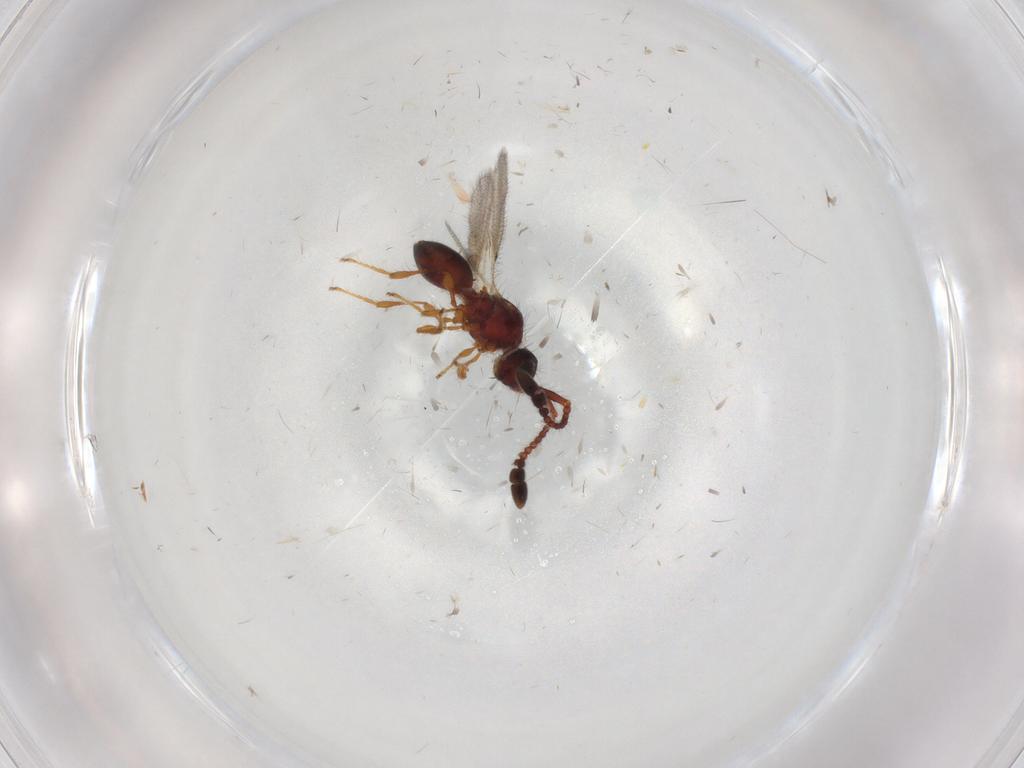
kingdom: Animalia
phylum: Arthropoda
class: Insecta
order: Hymenoptera
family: Diapriidae
